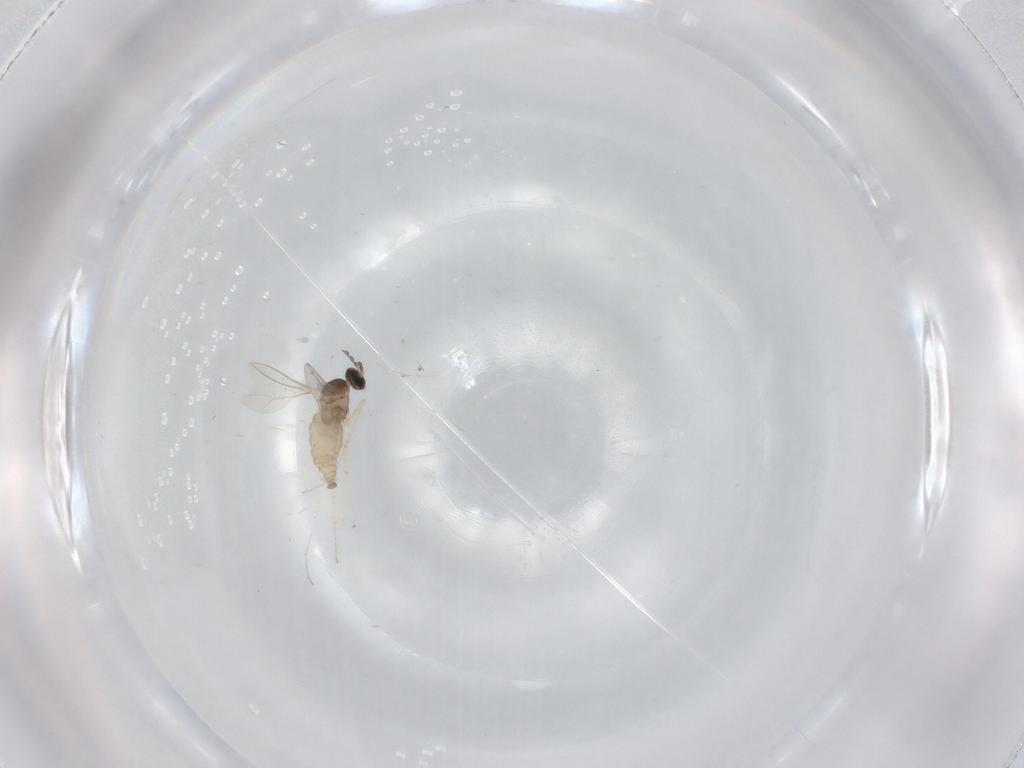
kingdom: Animalia
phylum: Arthropoda
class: Insecta
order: Diptera
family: Cecidomyiidae
